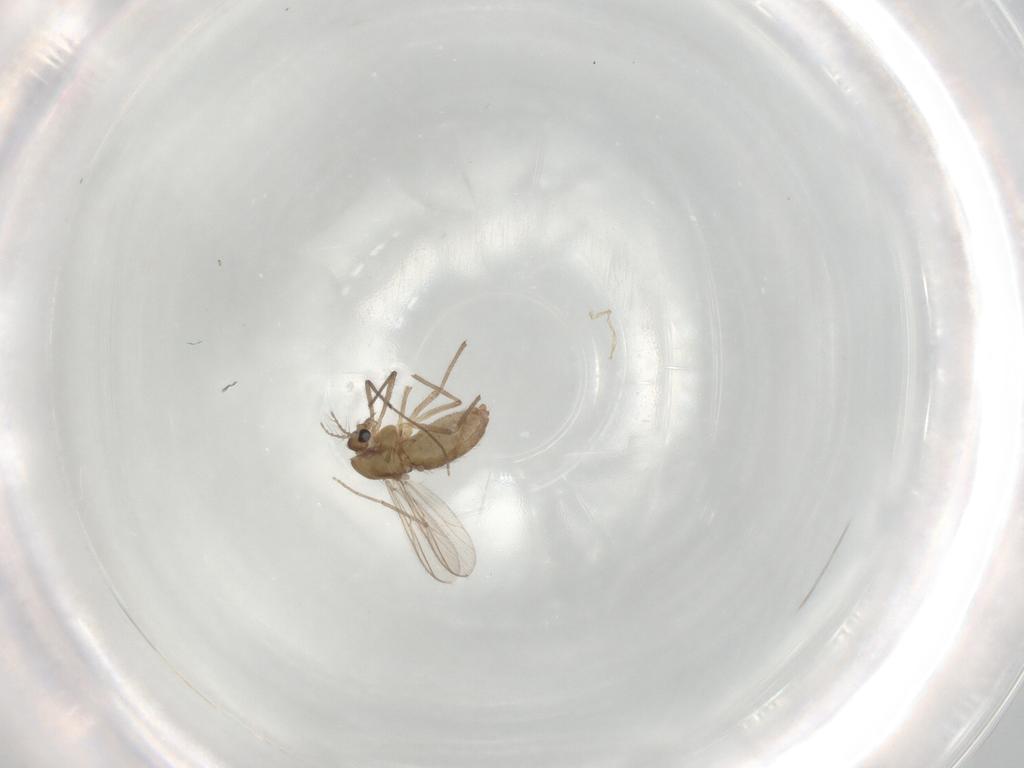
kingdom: Animalia
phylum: Arthropoda
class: Insecta
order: Diptera
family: Chironomidae
